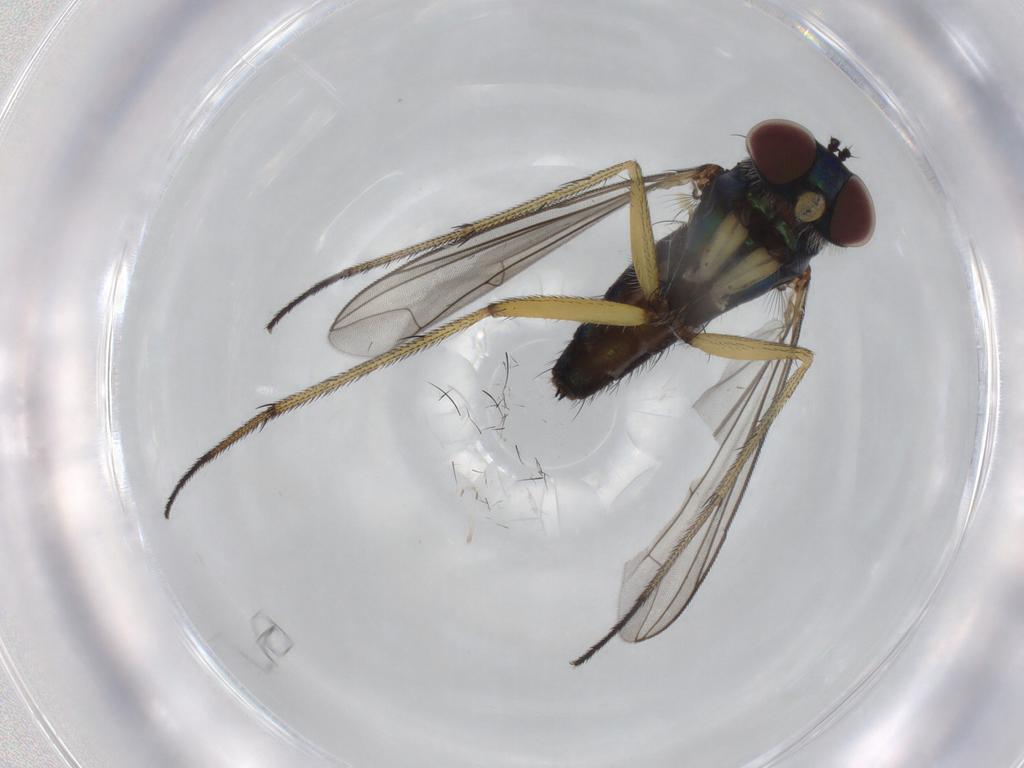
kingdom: Animalia
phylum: Arthropoda
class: Insecta
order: Diptera
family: Dolichopodidae
